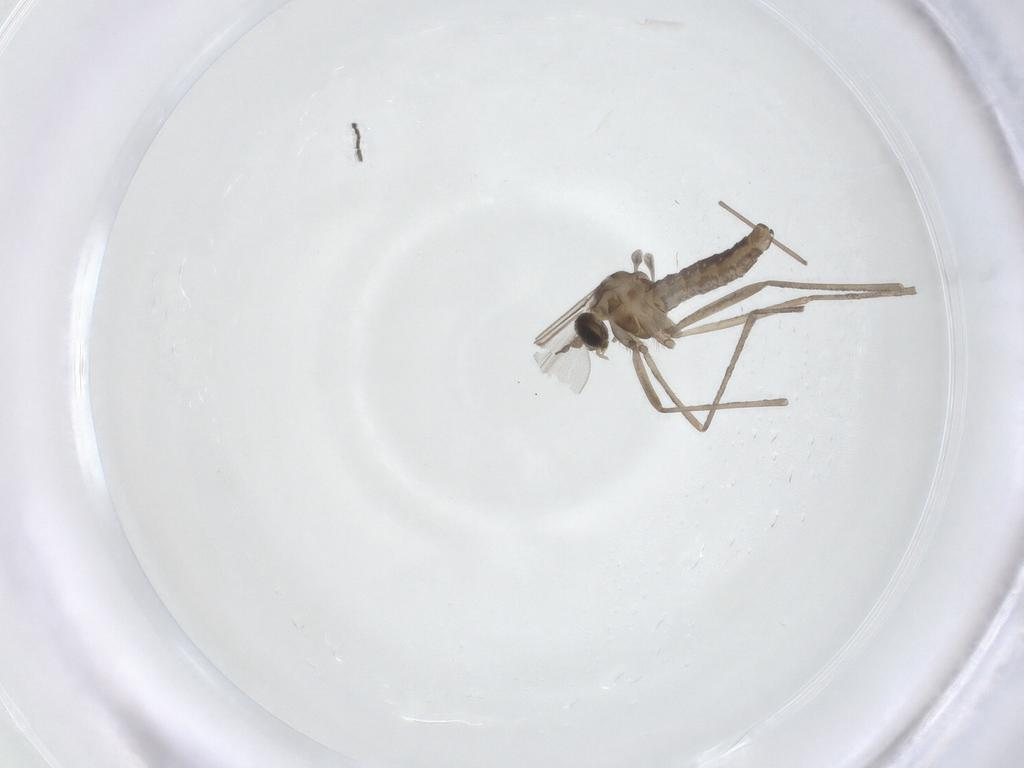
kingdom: Animalia
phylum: Arthropoda
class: Insecta
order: Diptera
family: Cecidomyiidae
